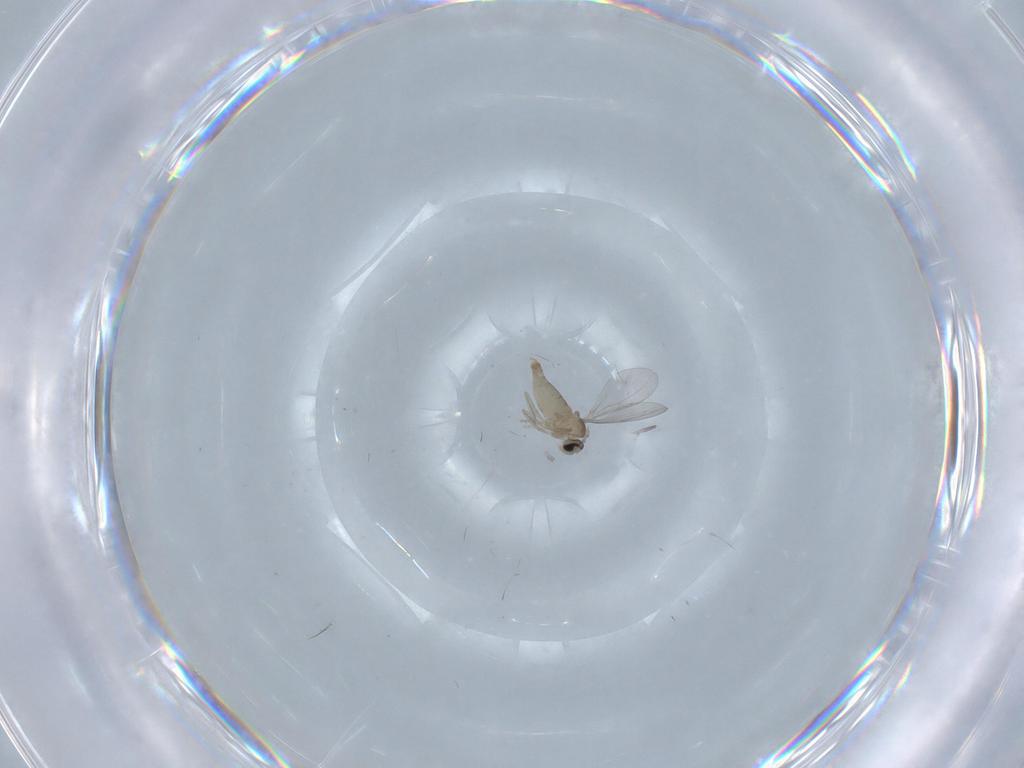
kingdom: Animalia
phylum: Arthropoda
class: Insecta
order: Diptera
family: Cecidomyiidae
